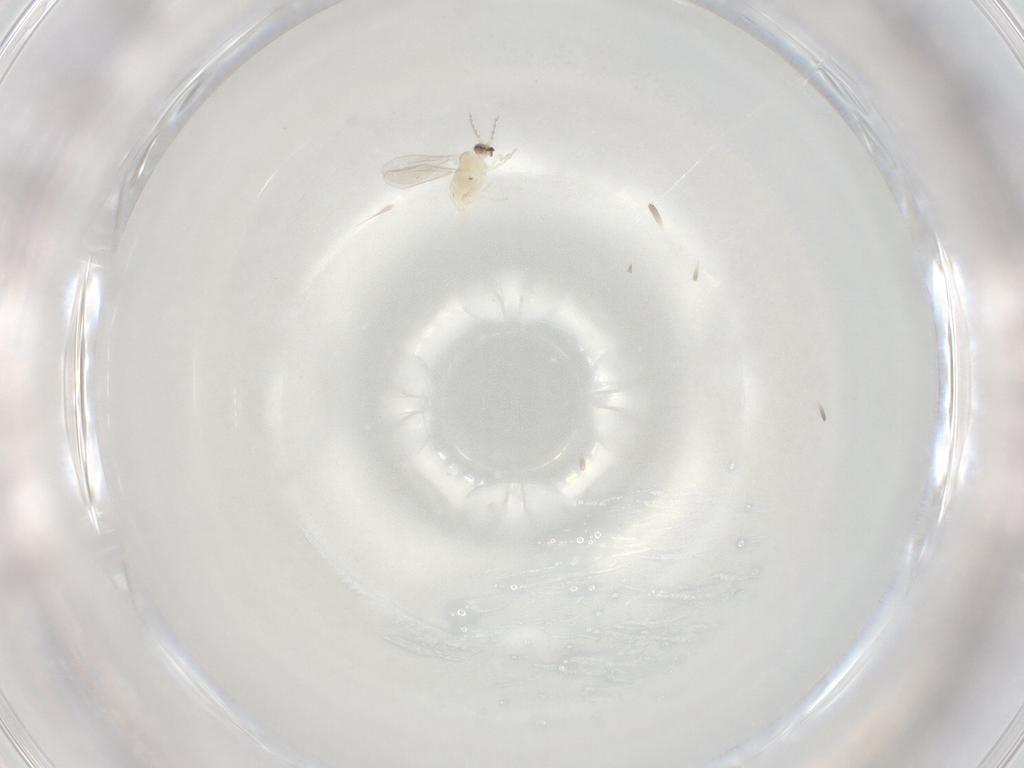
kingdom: Animalia
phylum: Arthropoda
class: Insecta
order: Diptera
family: Cecidomyiidae
